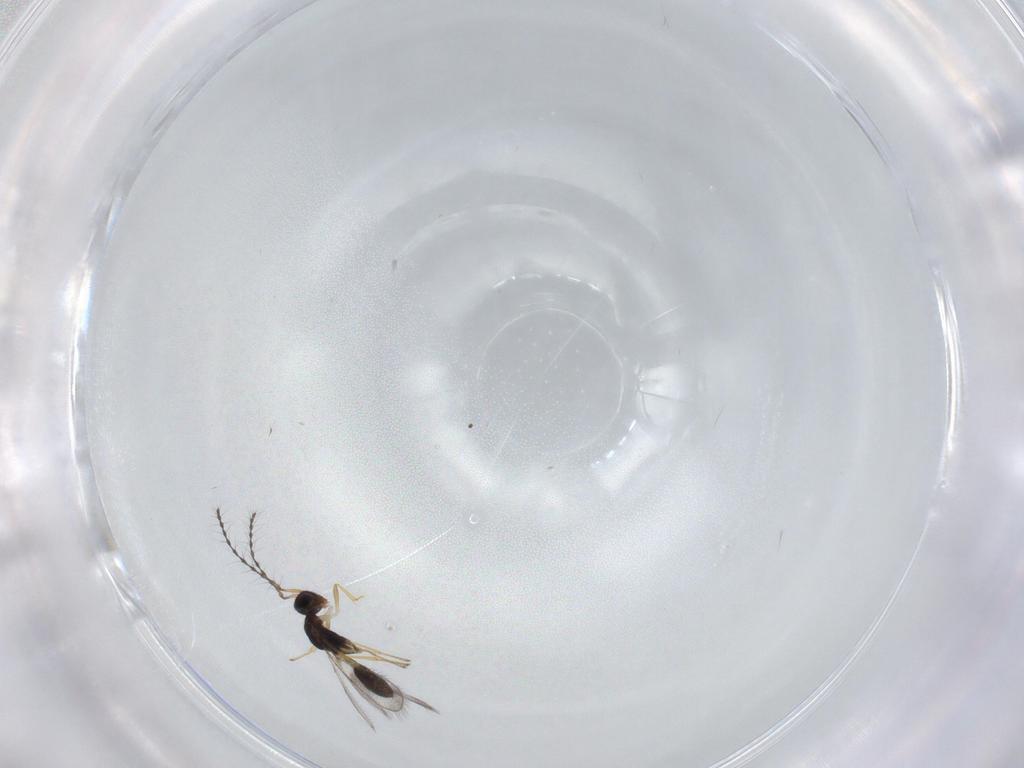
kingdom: Animalia
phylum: Arthropoda
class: Insecta
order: Hymenoptera
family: Diparidae
